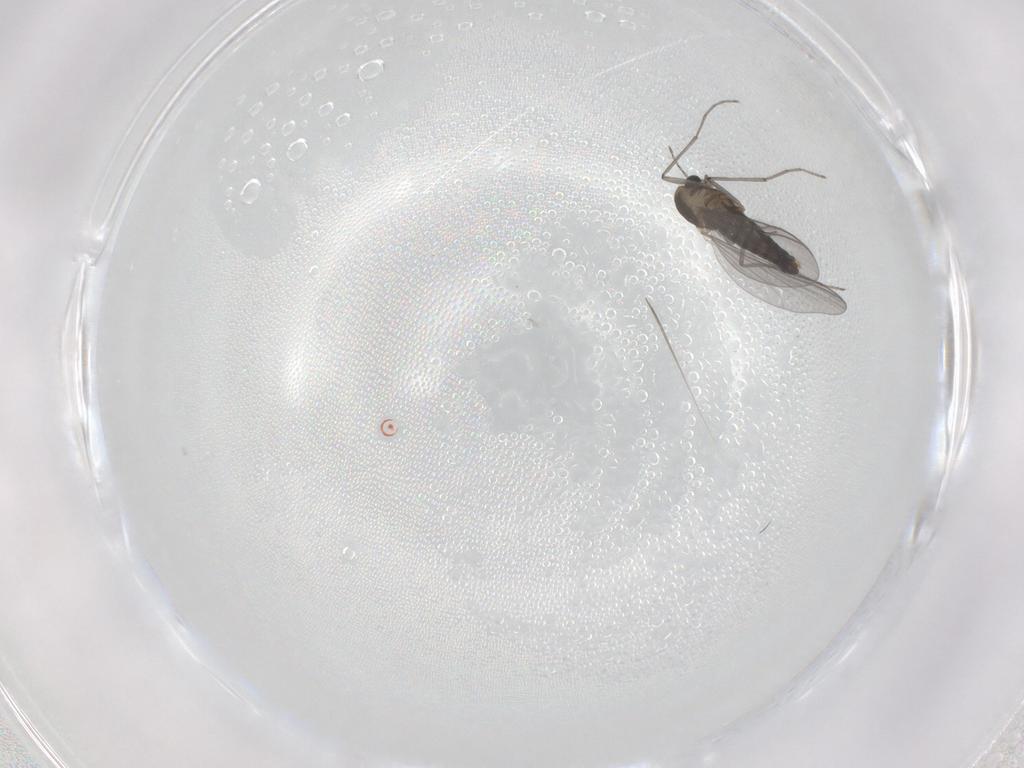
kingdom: Animalia
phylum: Arthropoda
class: Insecta
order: Diptera
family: Chironomidae
